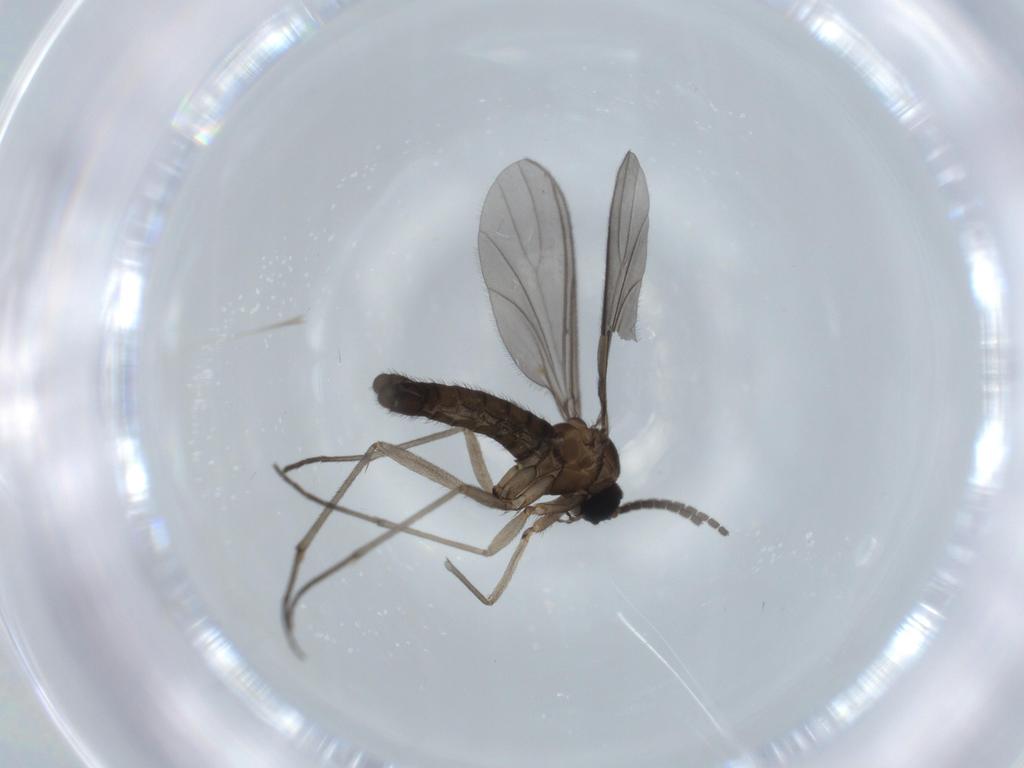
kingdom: Animalia
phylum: Arthropoda
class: Insecta
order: Diptera
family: Sciaridae
